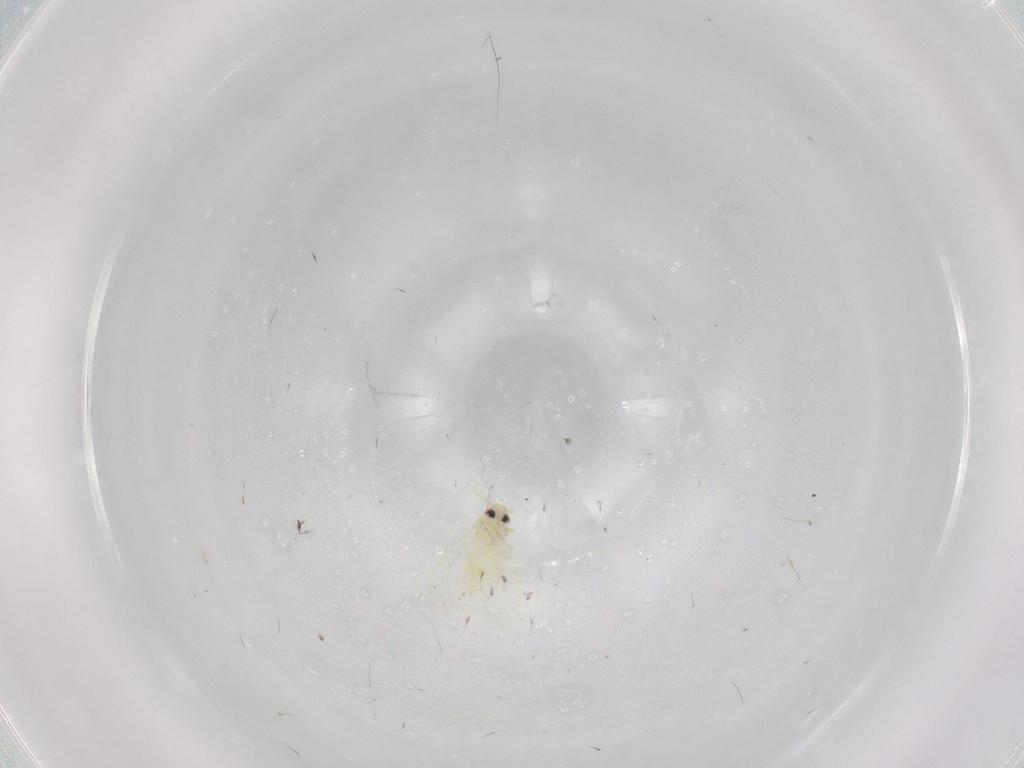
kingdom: Animalia
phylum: Arthropoda
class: Insecta
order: Hemiptera
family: Aleyrodidae
